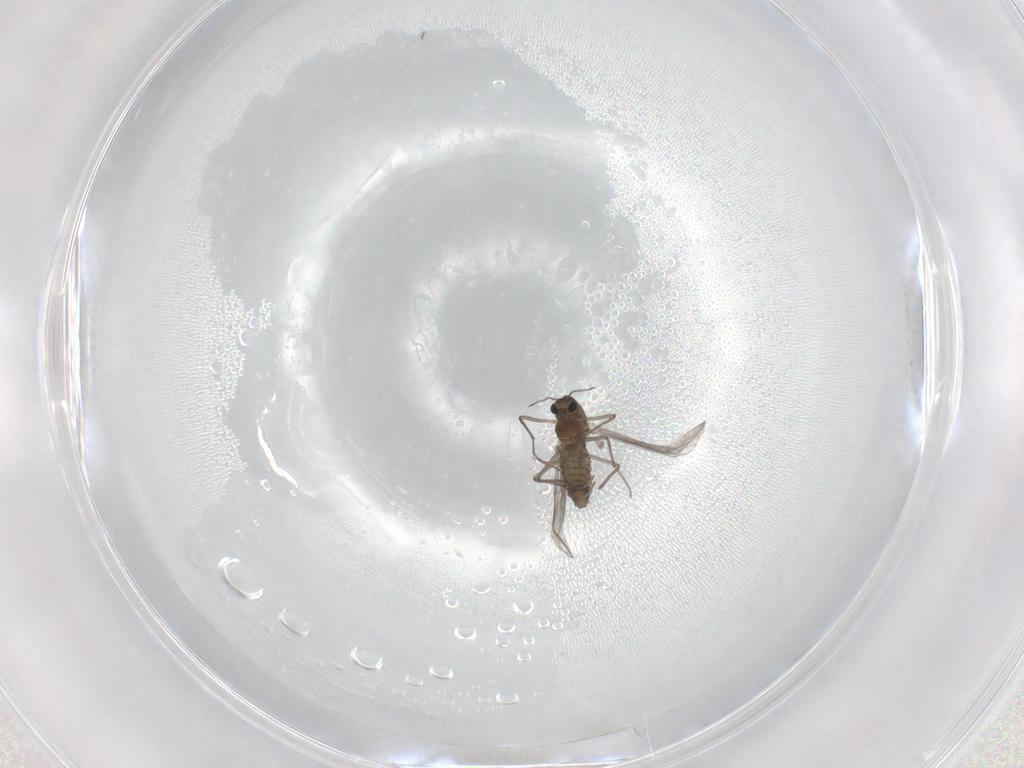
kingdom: Animalia
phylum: Arthropoda
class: Insecta
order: Diptera
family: Chironomidae
